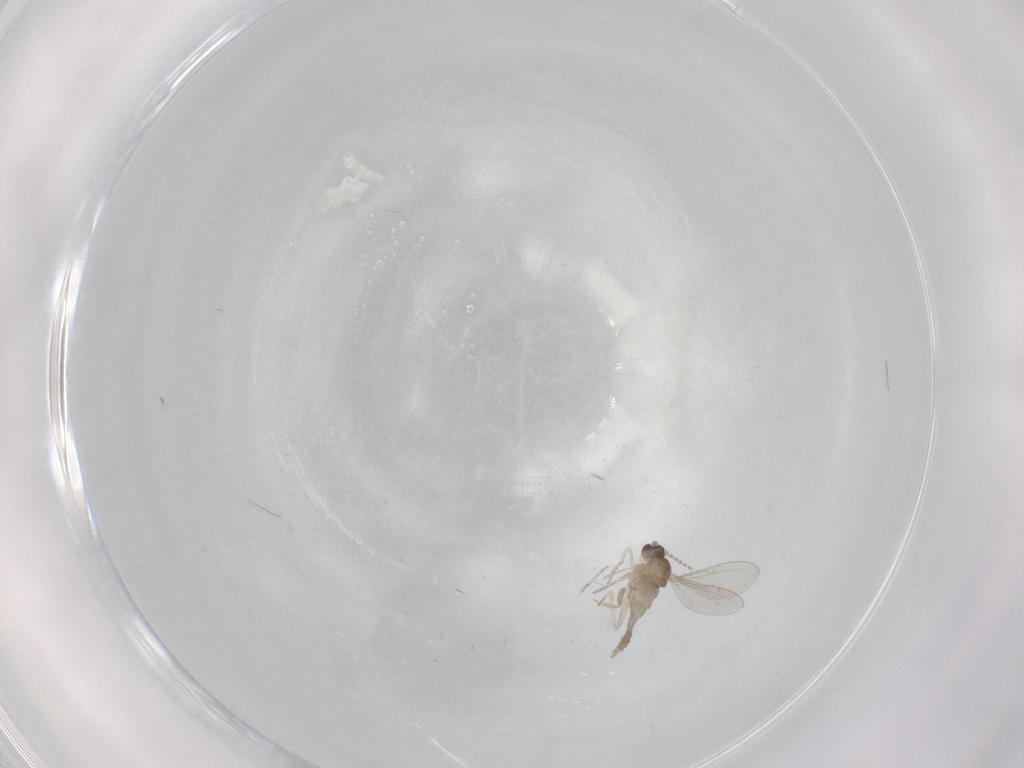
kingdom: Animalia
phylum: Arthropoda
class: Insecta
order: Diptera
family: Cecidomyiidae
